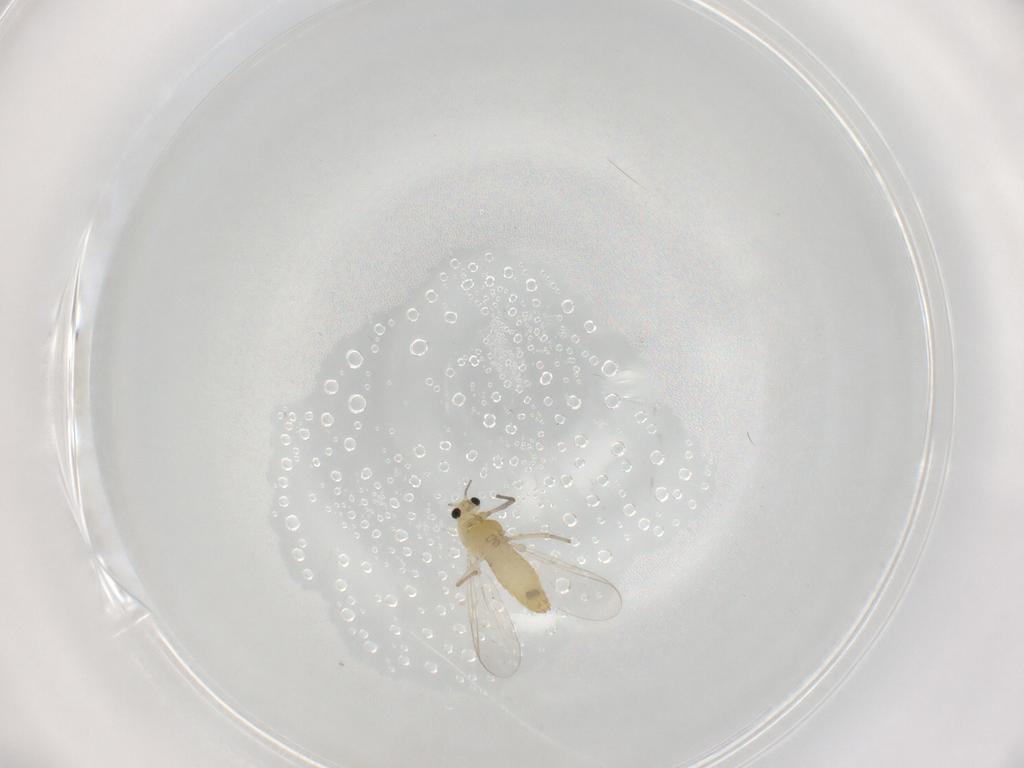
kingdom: Animalia
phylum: Arthropoda
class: Insecta
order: Diptera
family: Chironomidae
